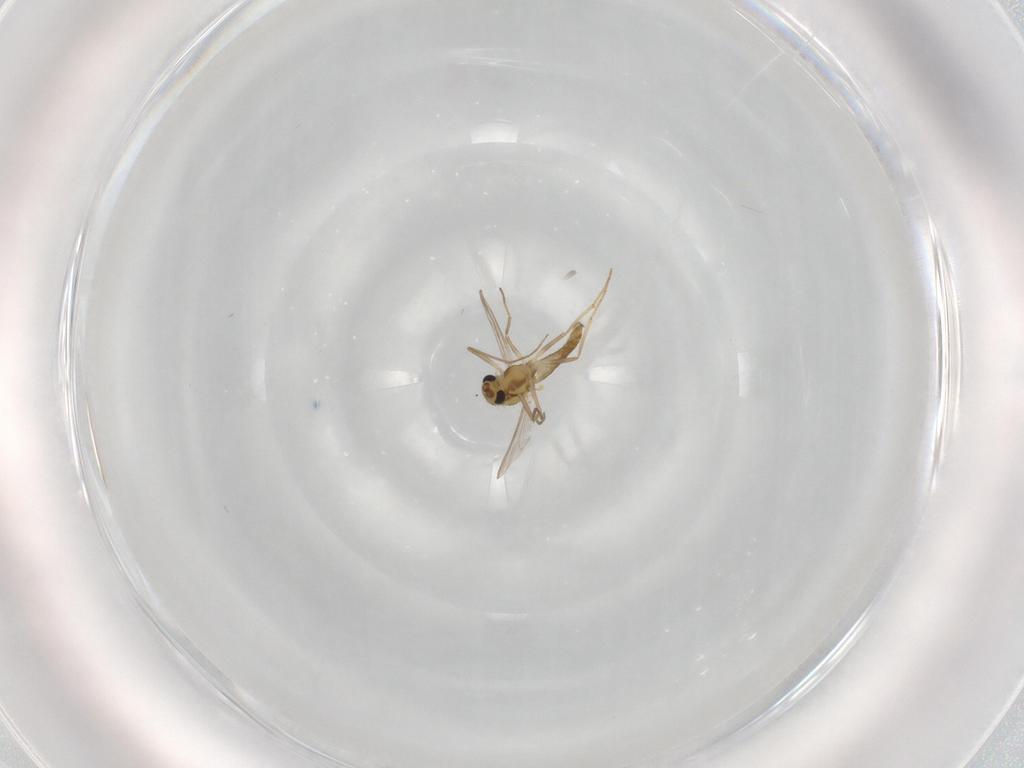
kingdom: Animalia
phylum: Arthropoda
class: Insecta
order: Diptera
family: Chironomidae
